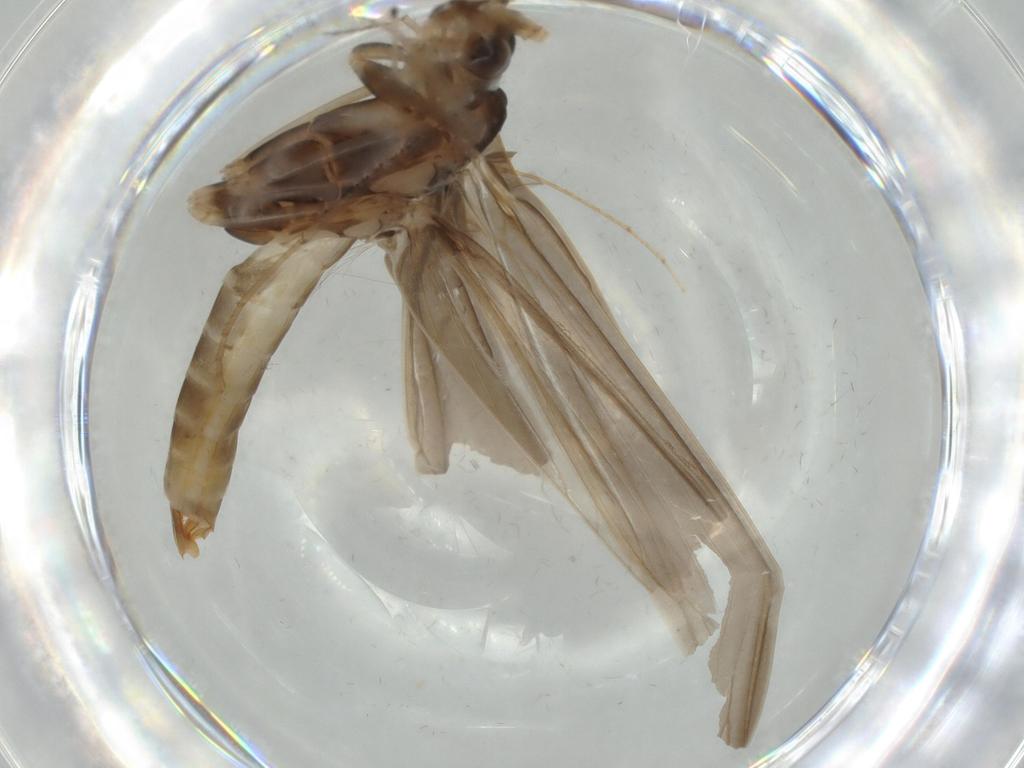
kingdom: Animalia
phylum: Arthropoda
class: Insecta
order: Trichoptera
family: Leptoceridae
